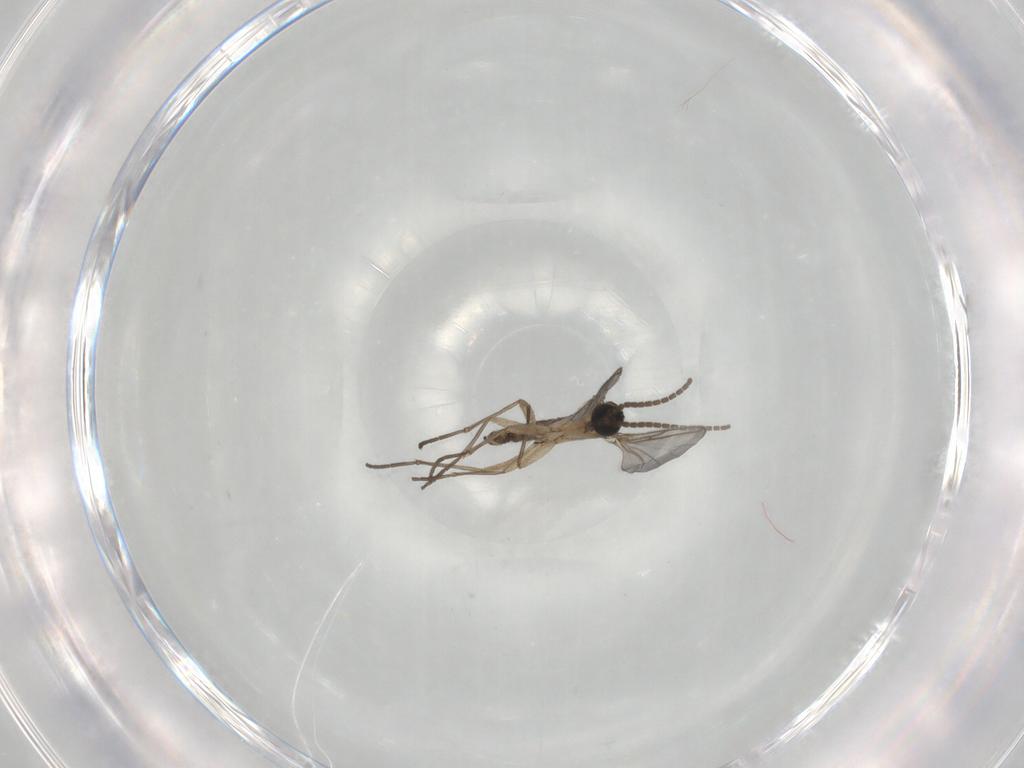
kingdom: Animalia
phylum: Arthropoda
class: Insecta
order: Diptera
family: Sciaridae
